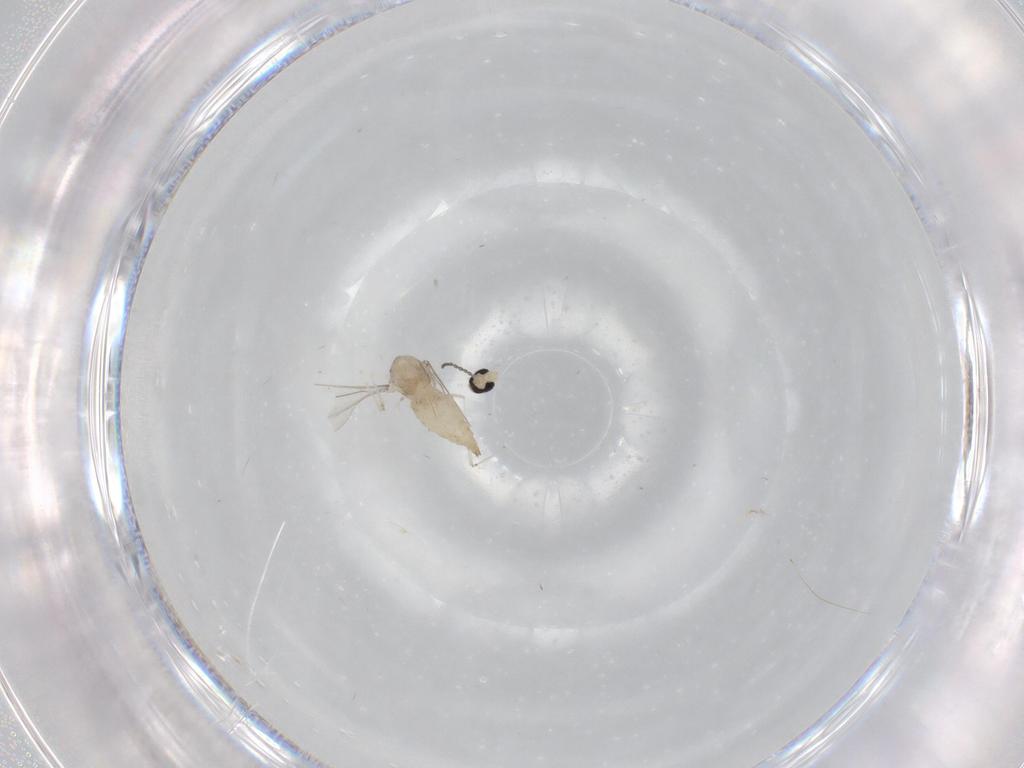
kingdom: Animalia
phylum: Arthropoda
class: Insecta
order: Diptera
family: Cecidomyiidae
